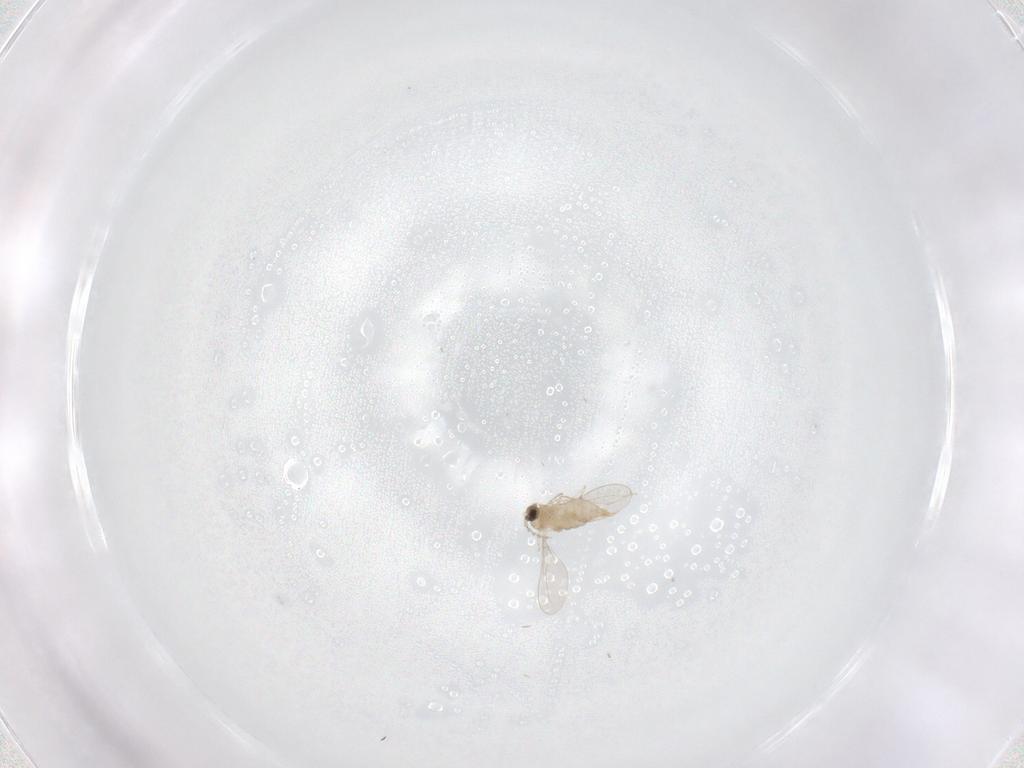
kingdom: Animalia
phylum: Arthropoda
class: Insecta
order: Diptera
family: Cecidomyiidae
